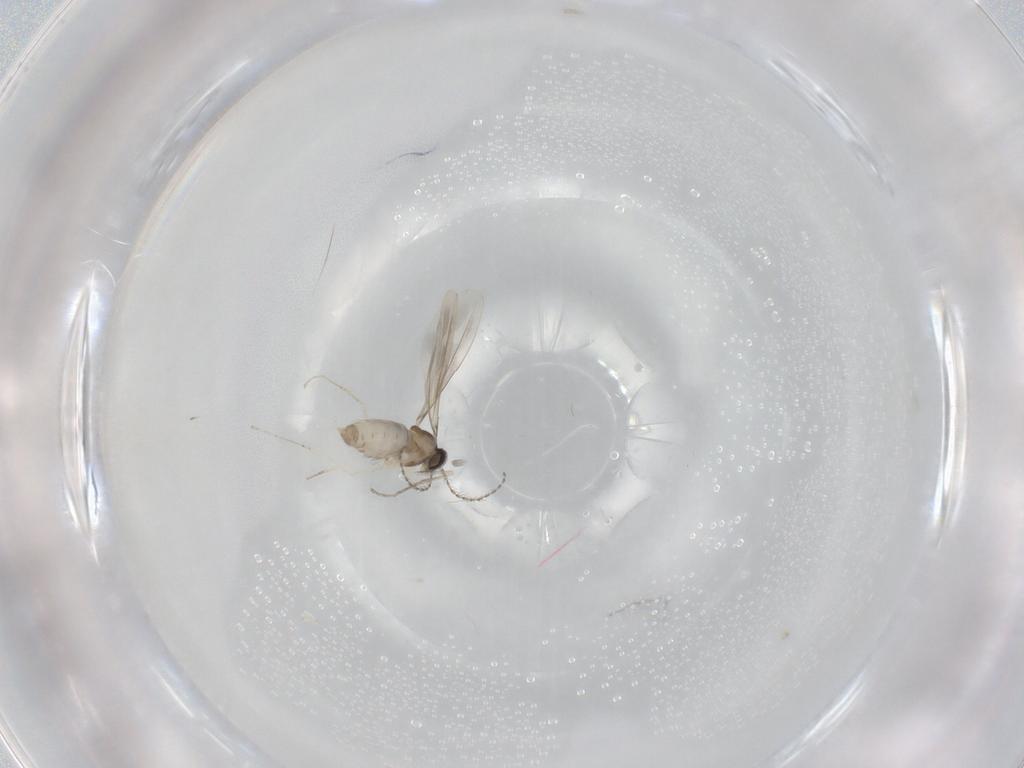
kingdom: Animalia
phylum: Arthropoda
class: Insecta
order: Diptera
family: Cecidomyiidae
